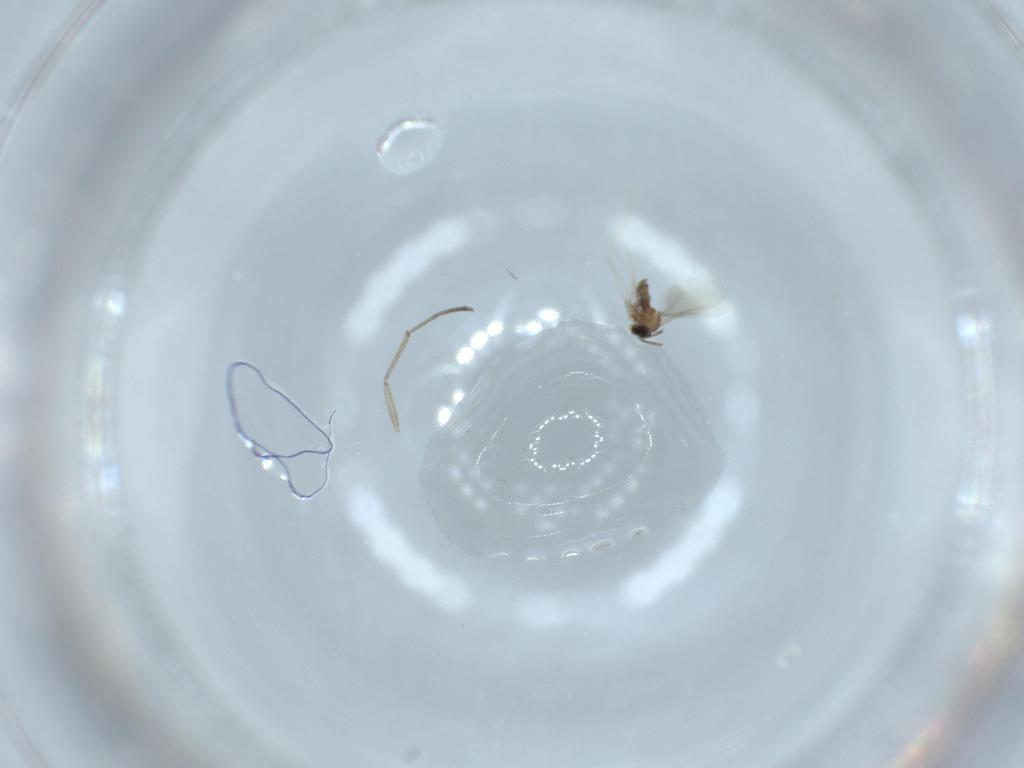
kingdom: Animalia
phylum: Arthropoda
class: Insecta
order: Diptera
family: Cecidomyiidae
